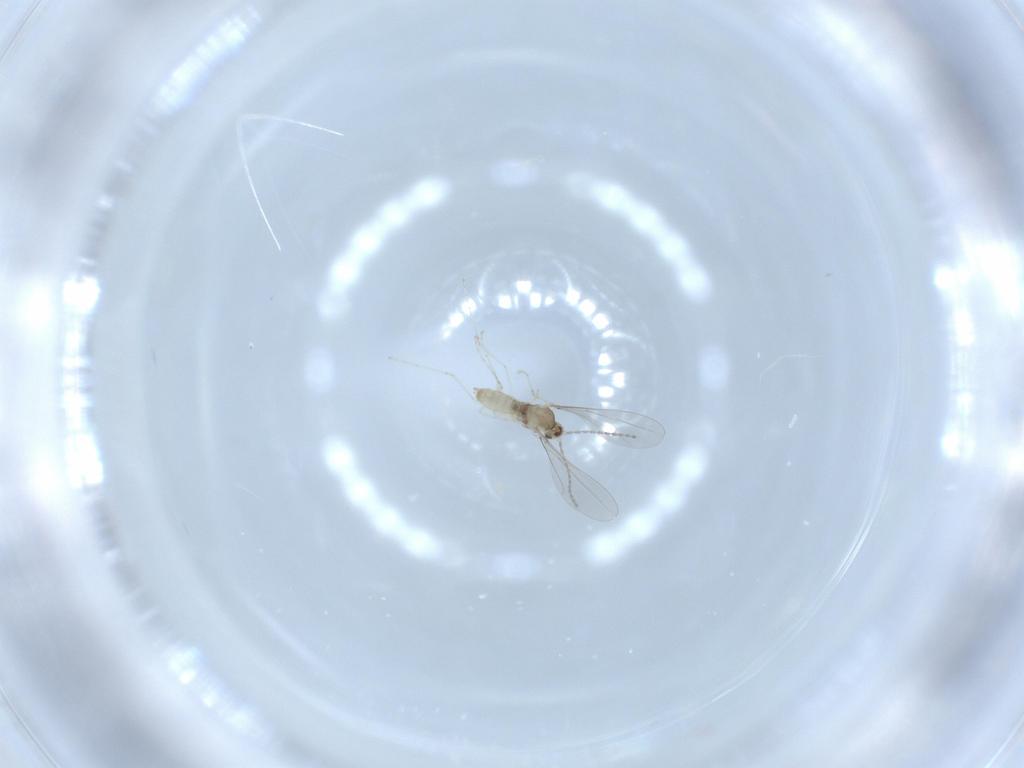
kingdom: Animalia
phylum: Arthropoda
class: Insecta
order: Diptera
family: Cecidomyiidae
